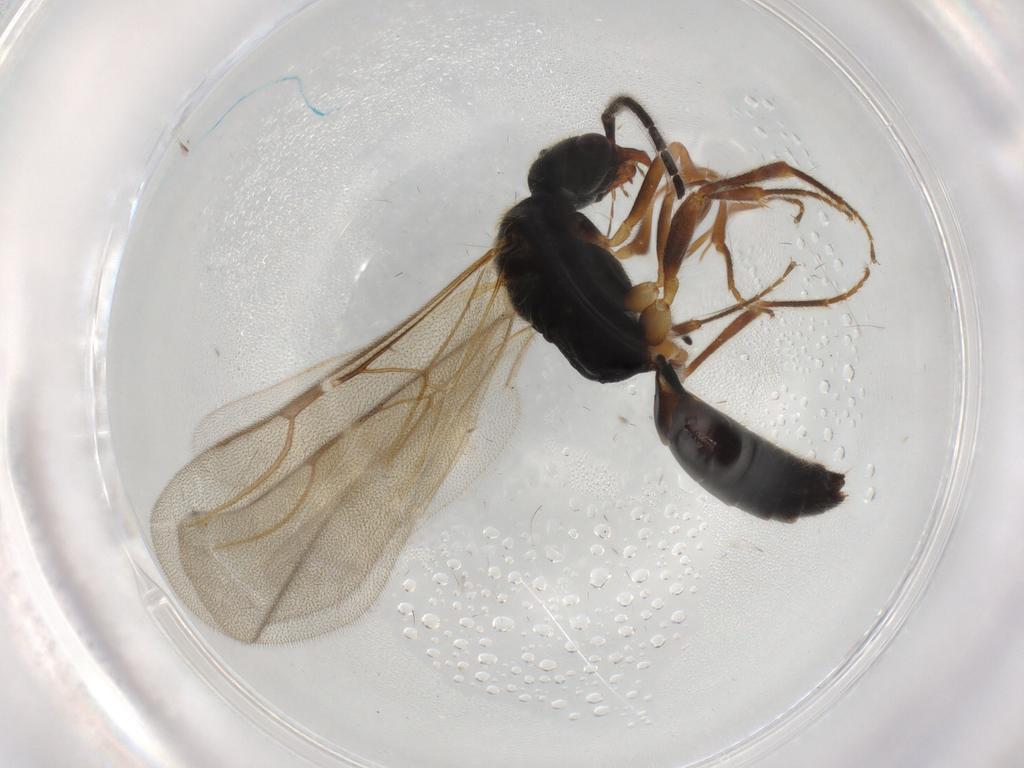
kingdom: Animalia
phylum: Arthropoda
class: Insecta
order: Hymenoptera
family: Bethylidae
